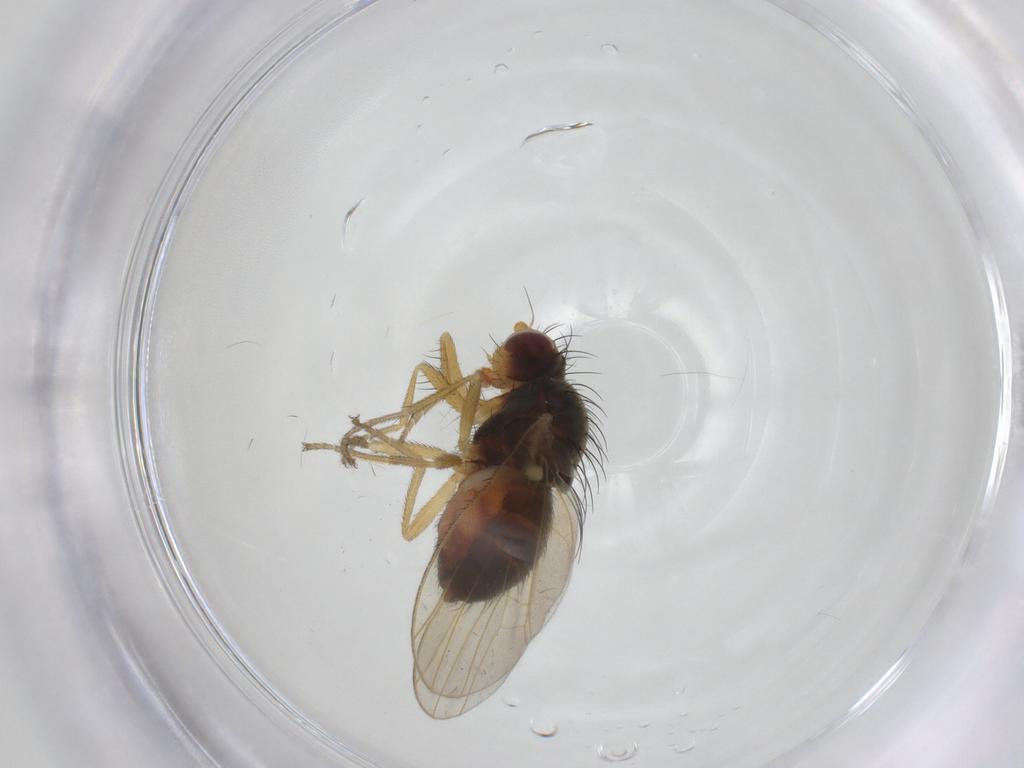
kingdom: Animalia
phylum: Arthropoda
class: Insecta
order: Diptera
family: Heleomyzidae
